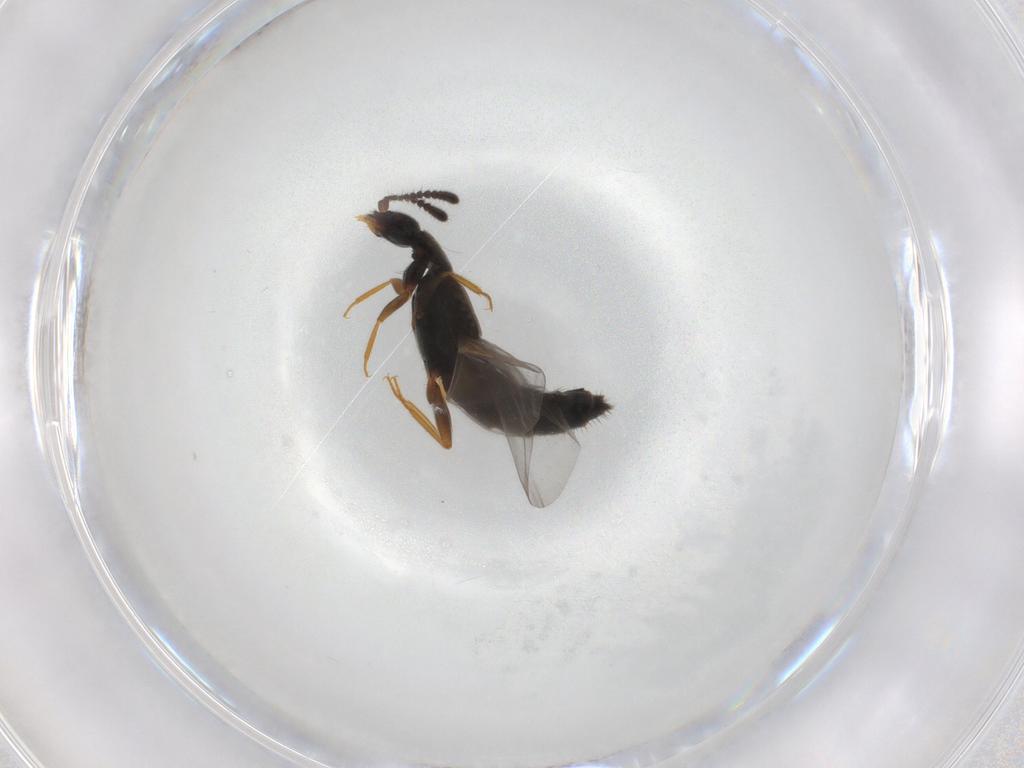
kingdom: Animalia
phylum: Arthropoda
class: Insecta
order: Coleoptera
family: Staphylinidae
